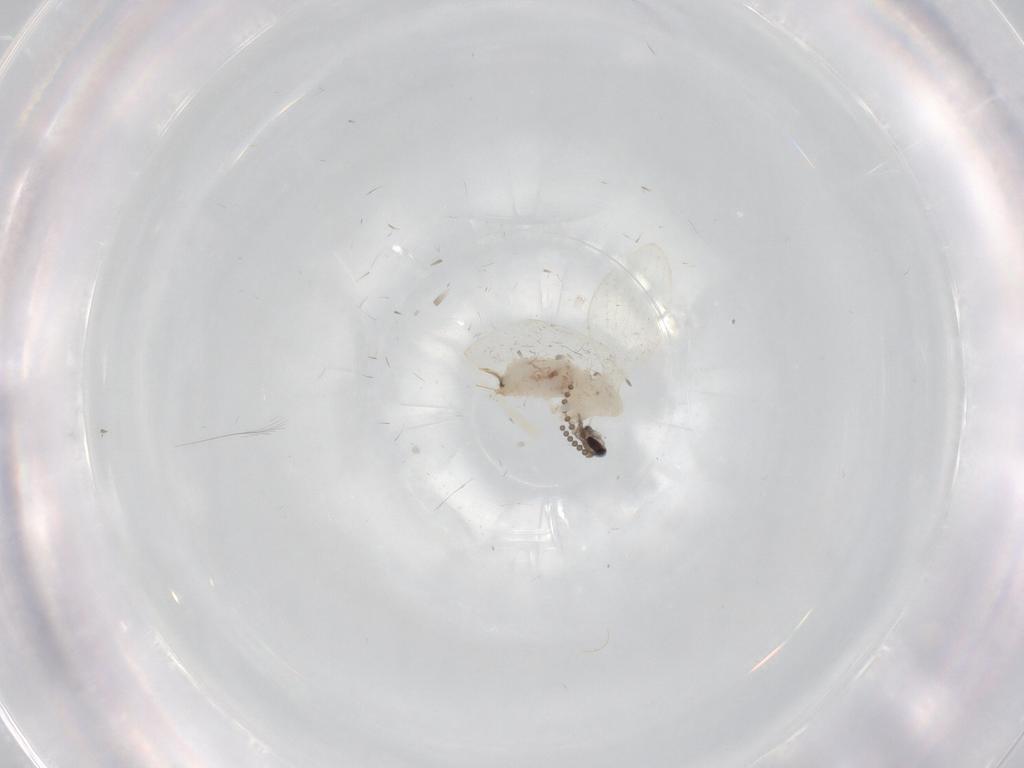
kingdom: Animalia
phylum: Arthropoda
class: Insecta
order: Diptera
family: Psychodidae
